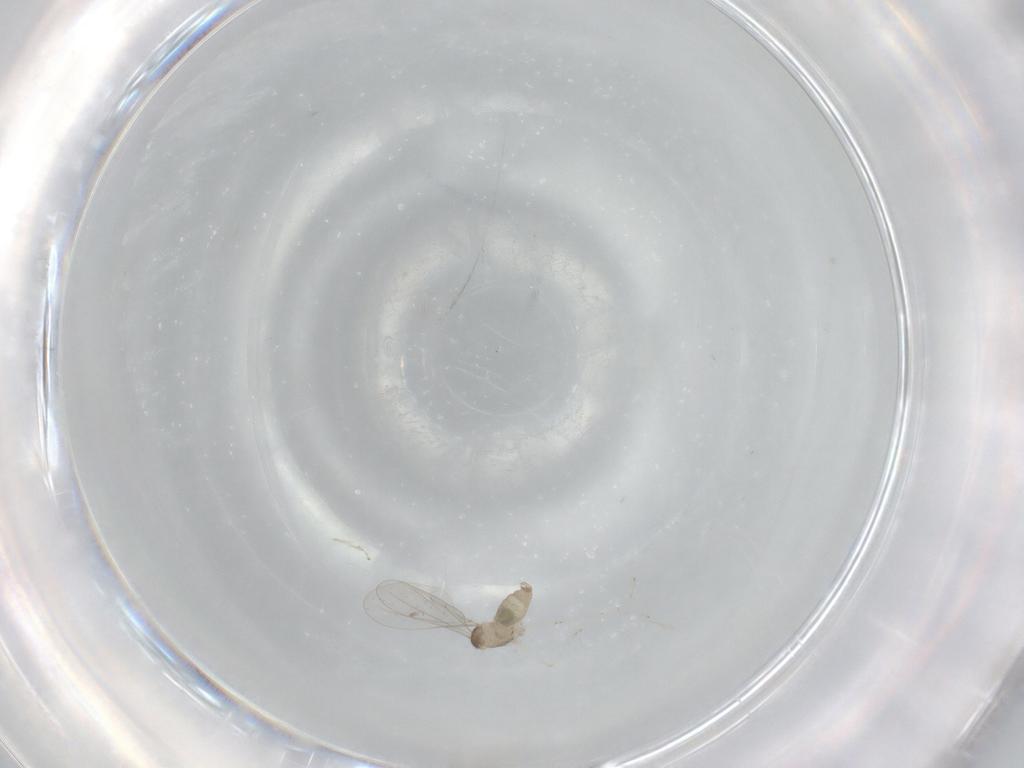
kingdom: Animalia
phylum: Arthropoda
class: Insecta
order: Diptera
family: Cecidomyiidae
